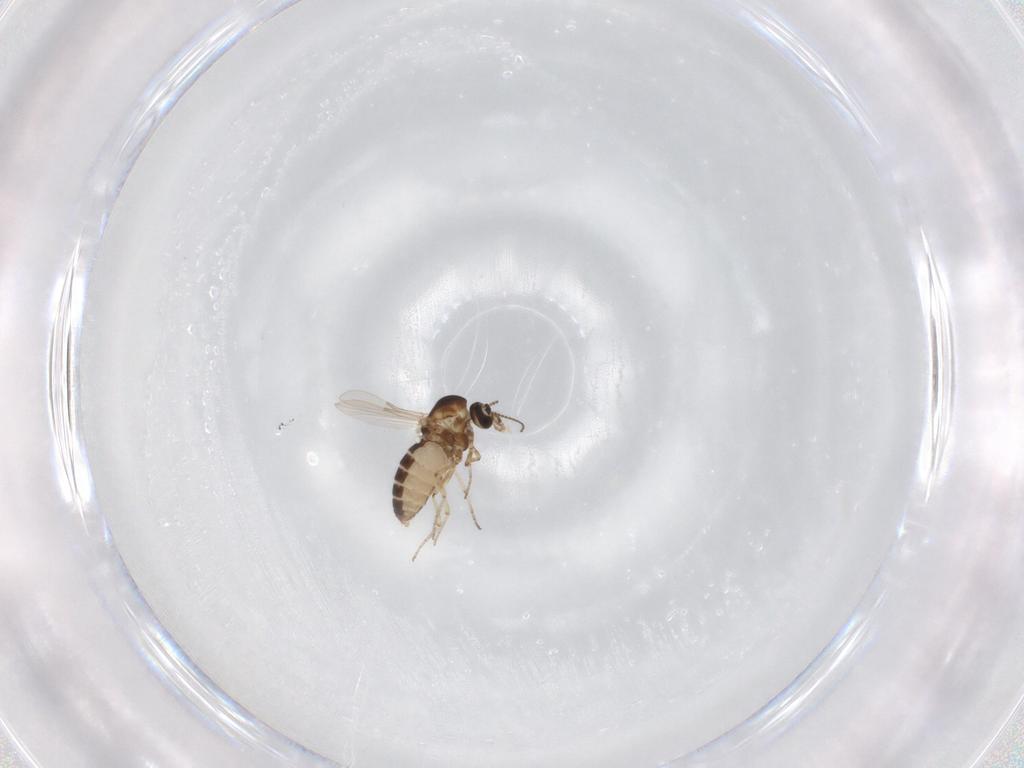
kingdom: Animalia
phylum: Arthropoda
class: Insecta
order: Diptera
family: Ceratopogonidae
